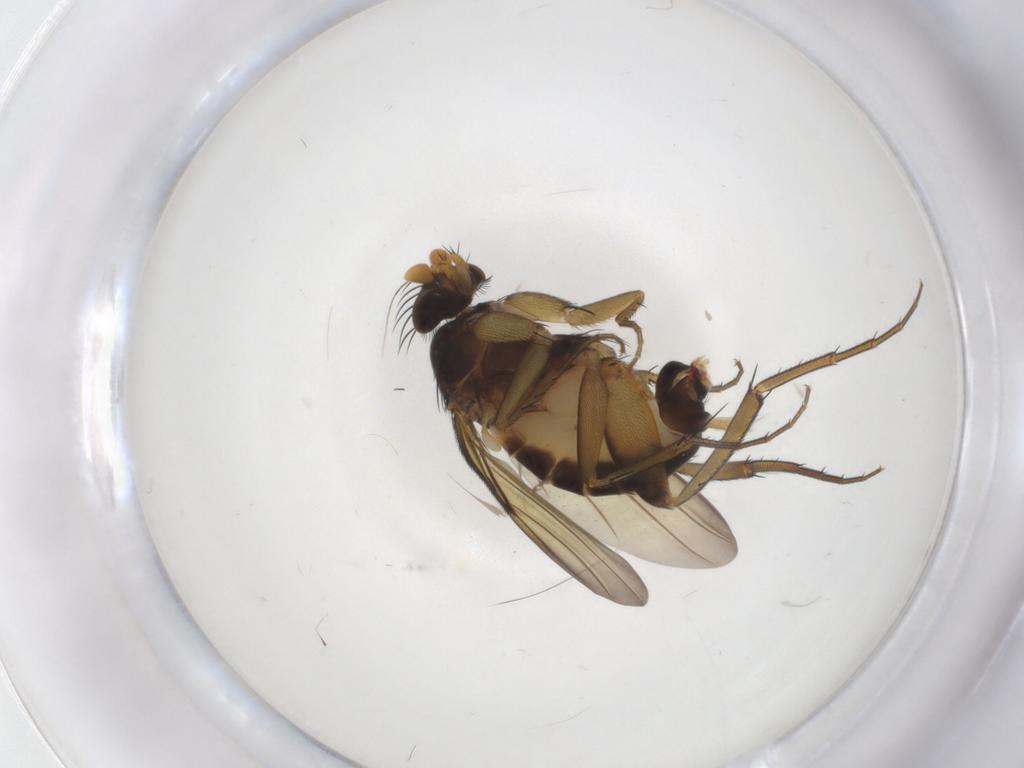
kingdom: Animalia
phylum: Arthropoda
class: Insecta
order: Diptera
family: Phoridae
